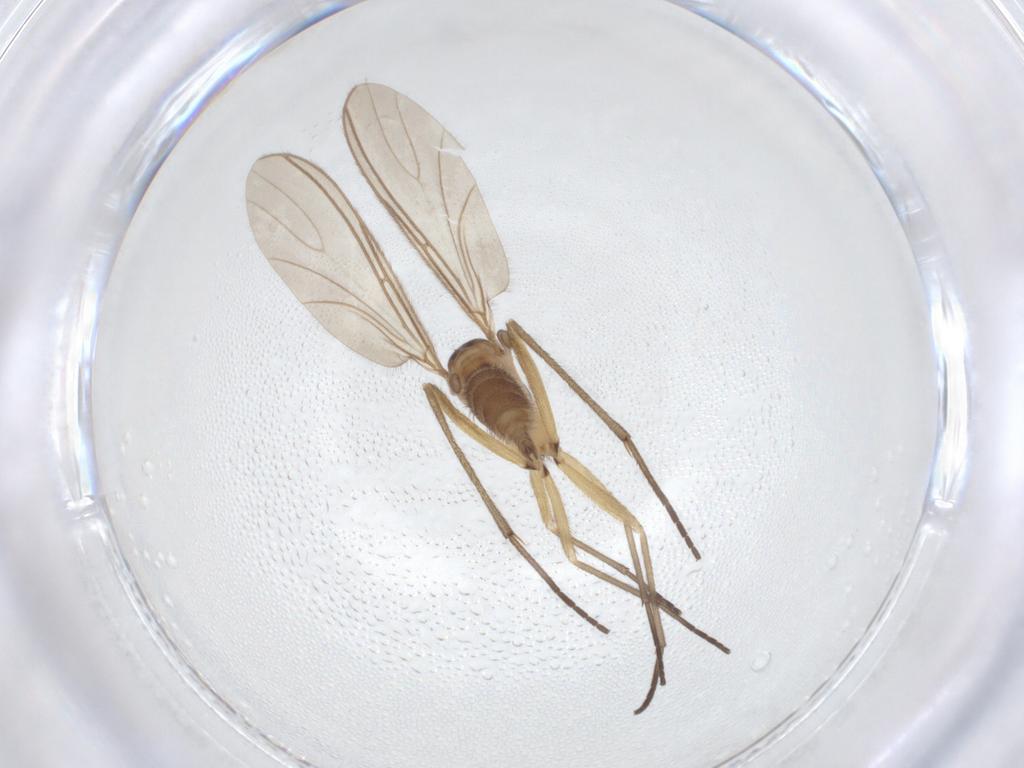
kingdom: Animalia
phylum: Arthropoda
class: Insecta
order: Diptera
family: Sciaridae
